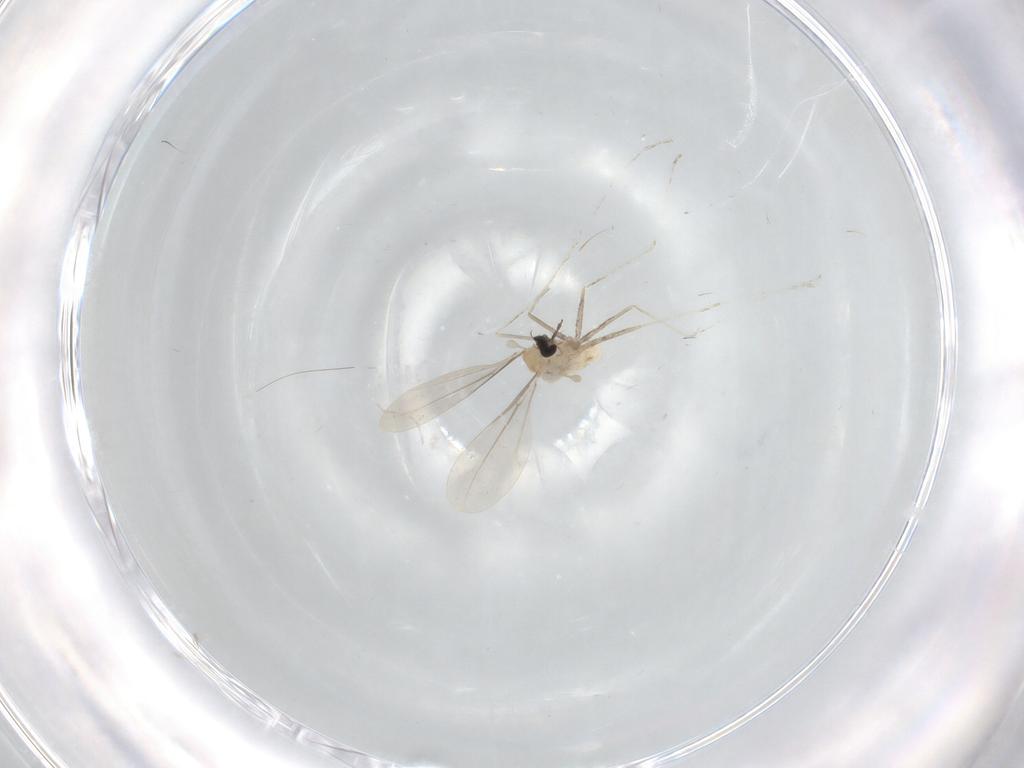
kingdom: Animalia
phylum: Arthropoda
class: Insecta
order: Diptera
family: Cecidomyiidae
